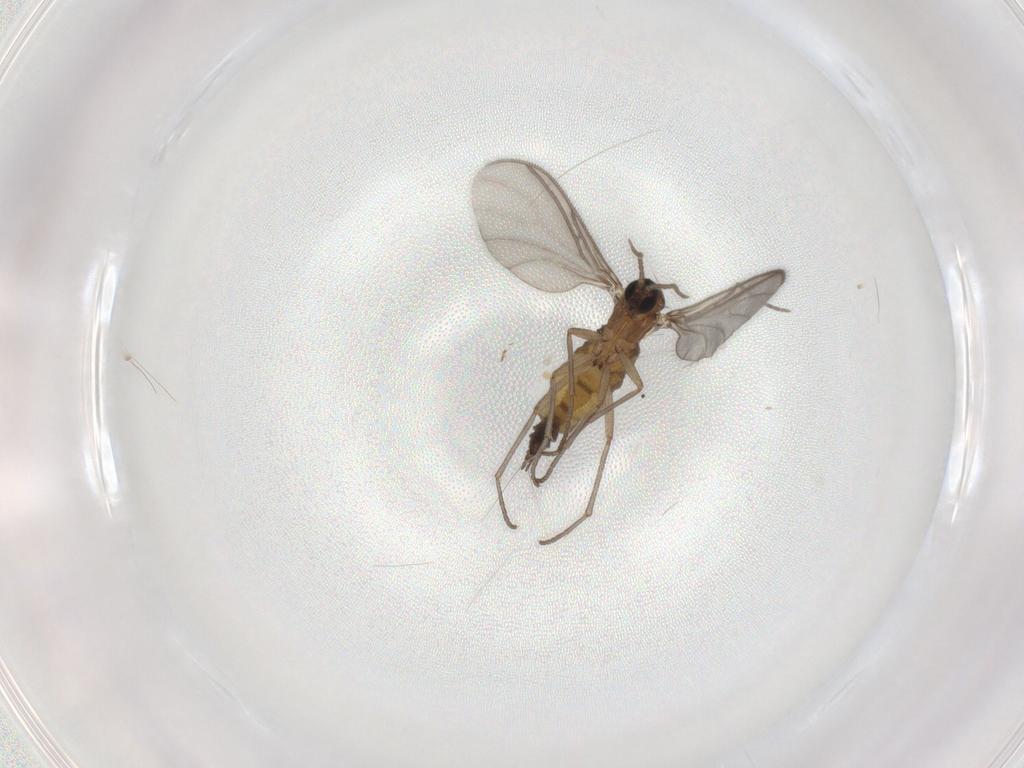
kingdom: Animalia
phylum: Arthropoda
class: Insecta
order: Diptera
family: Sciaridae
